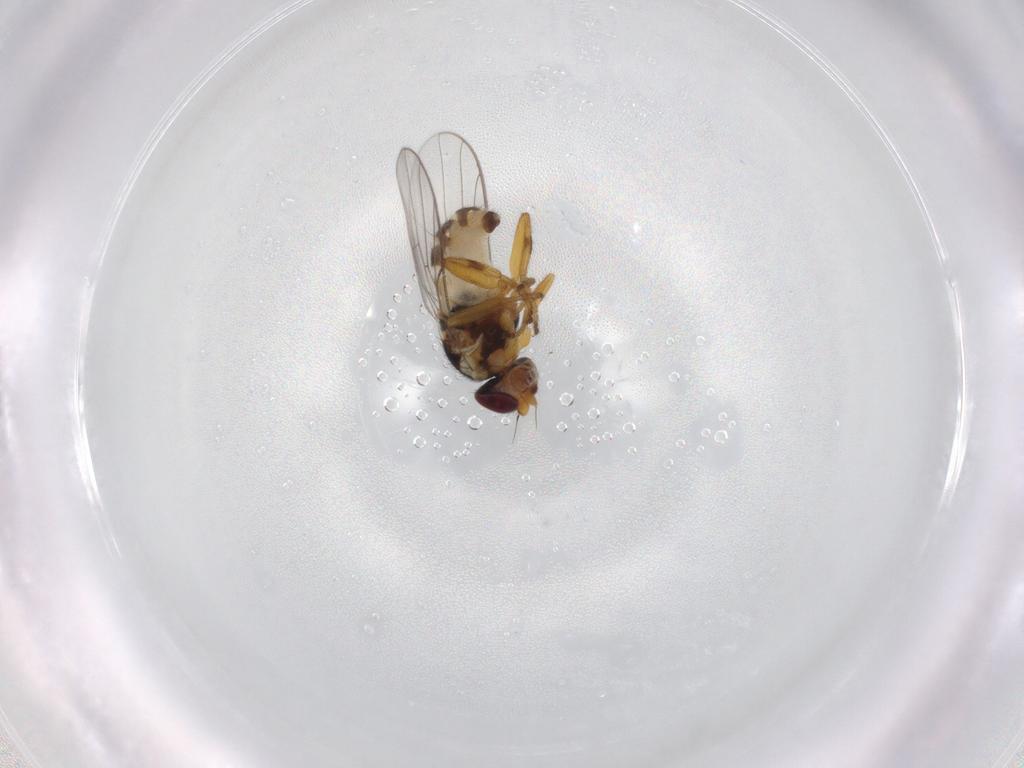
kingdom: Animalia
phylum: Arthropoda
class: Insecta
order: Diptera
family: Chloropidae
